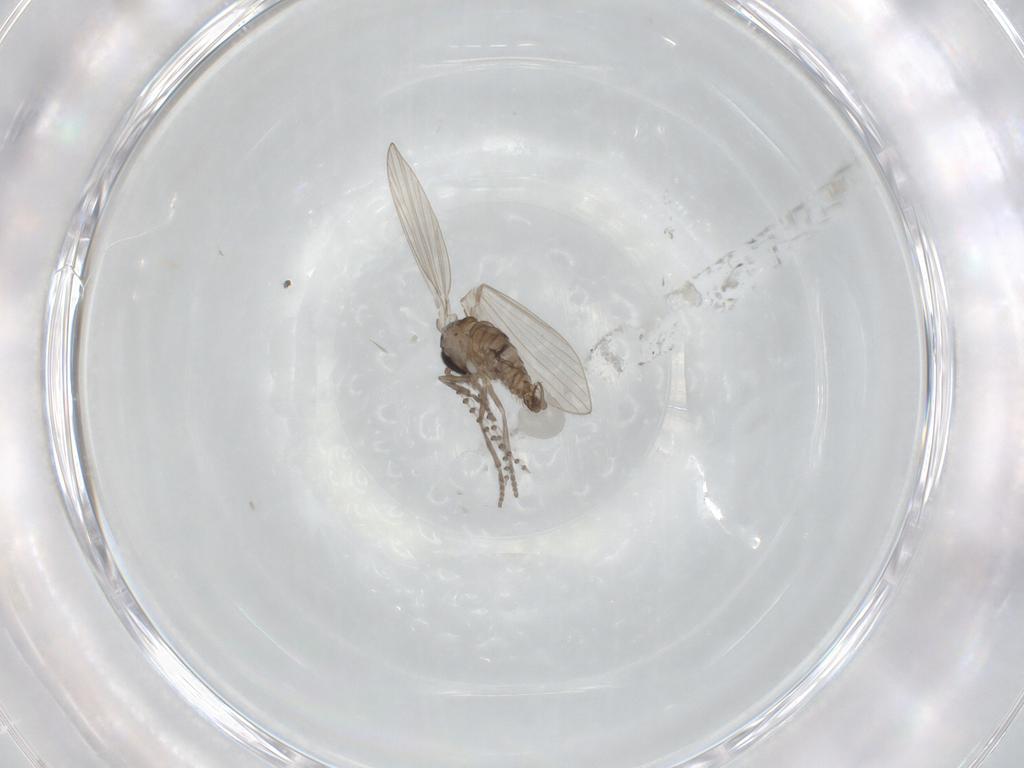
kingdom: Animalia
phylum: Arthropoda
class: Insecta
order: Diptera
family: Psychodidae
